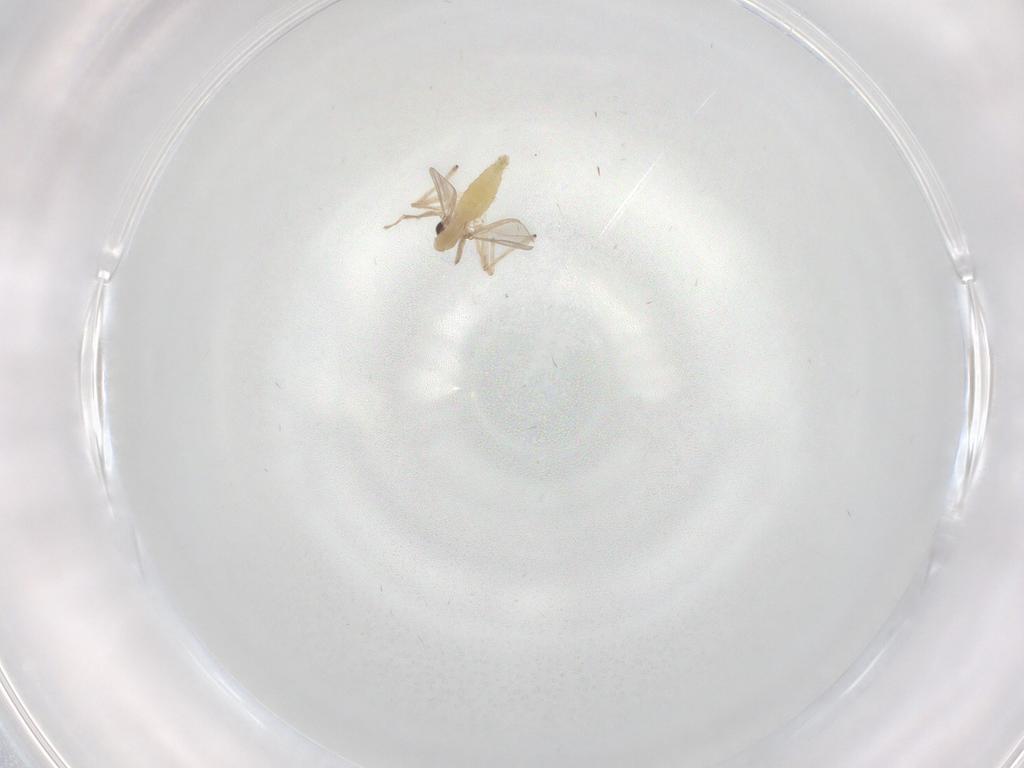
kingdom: Animalia
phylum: Arthropoda
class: Insecta
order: Diptera
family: Chironomidae
